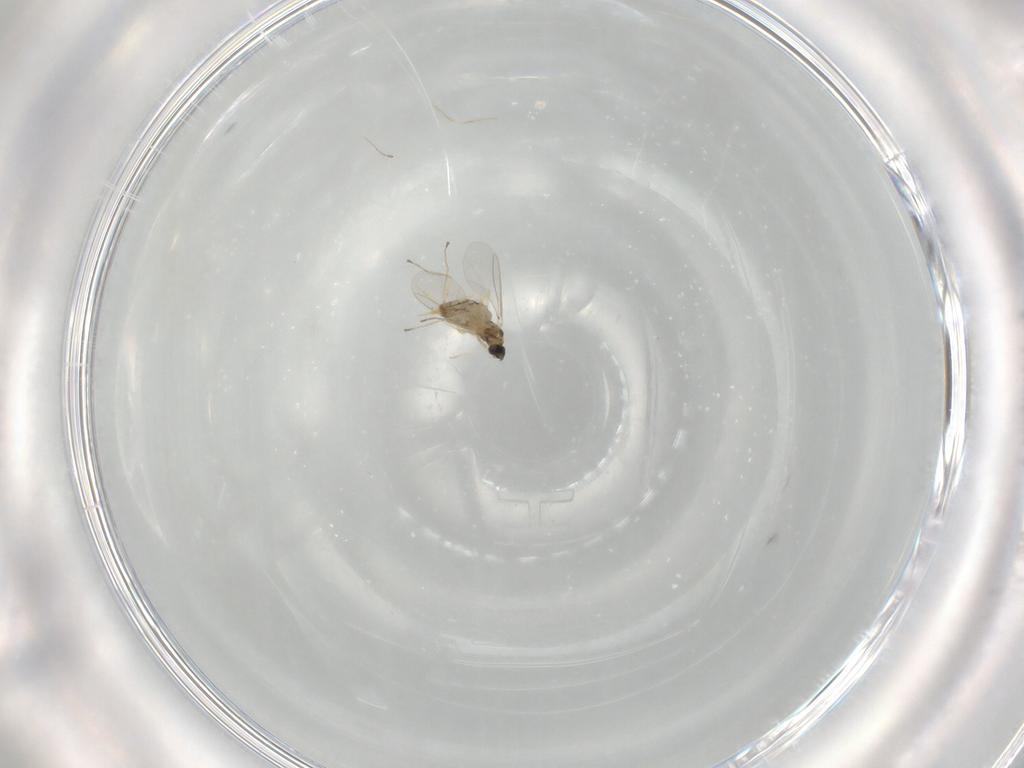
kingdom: Animalia
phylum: Arthropoda
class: Insecta
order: Diptera
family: Cecidomyiidae
